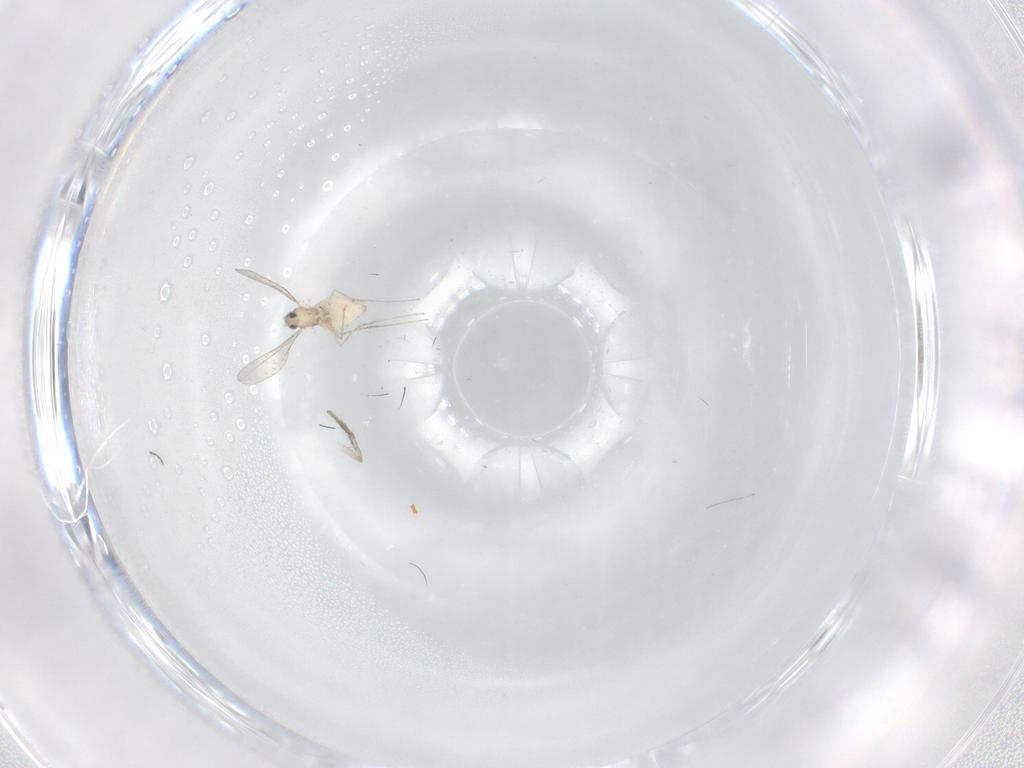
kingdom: Animalia
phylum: Arthropoda
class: Insecta
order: Diptera
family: Cecidomyiidae
